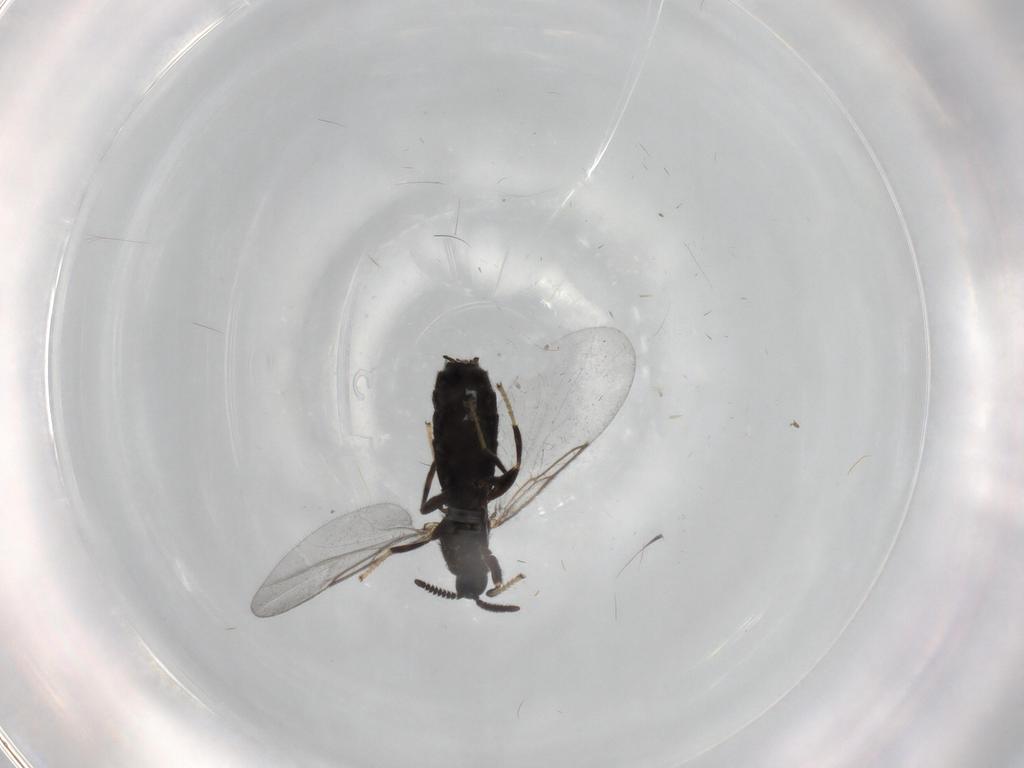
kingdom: Animalia
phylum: Arthropoda
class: Insecta
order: Diptera
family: Scatopsidae
